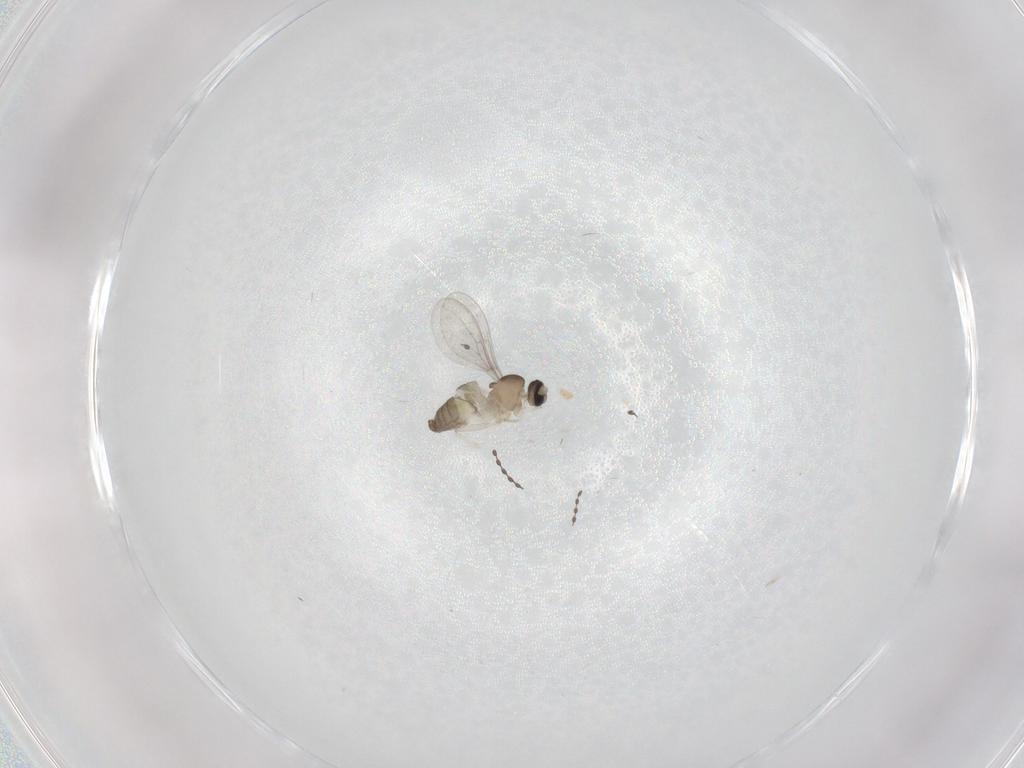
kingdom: Animalia
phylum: Arthropoda
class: Insecta
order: Diptera
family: Cecidomyiidae
